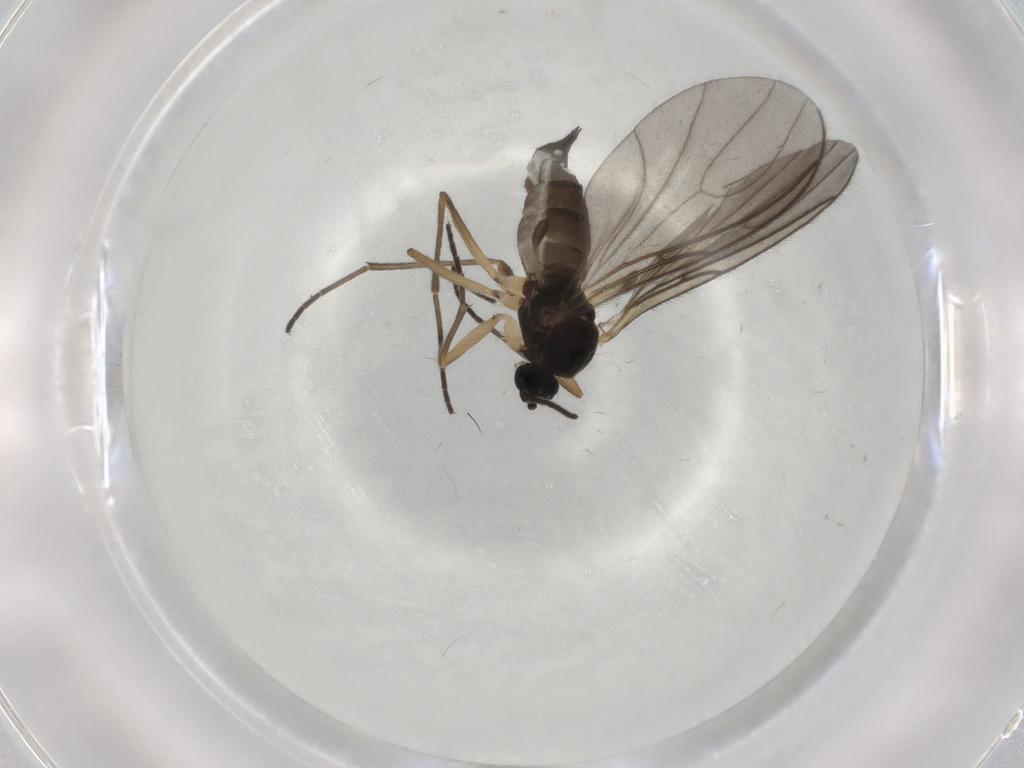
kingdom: Animalia
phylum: Arthropoda
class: Insecta
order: Diptera
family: Sciaridae
